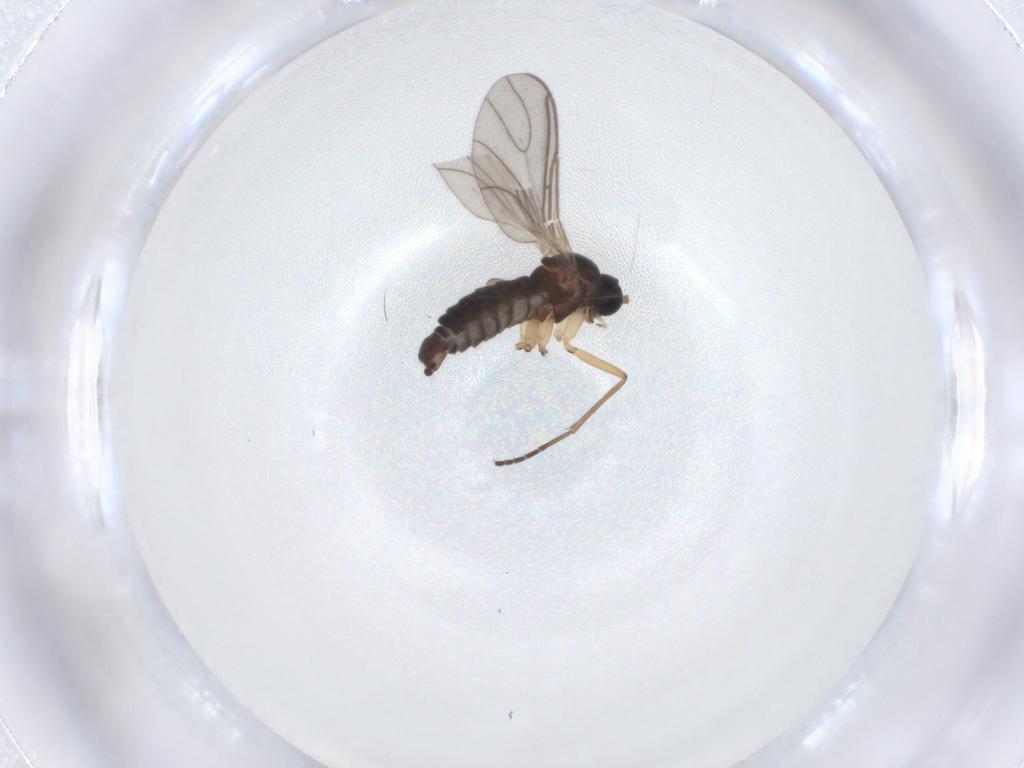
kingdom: Animalia
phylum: Arthropoda
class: Insecta
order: Diptera
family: Sciaridae
